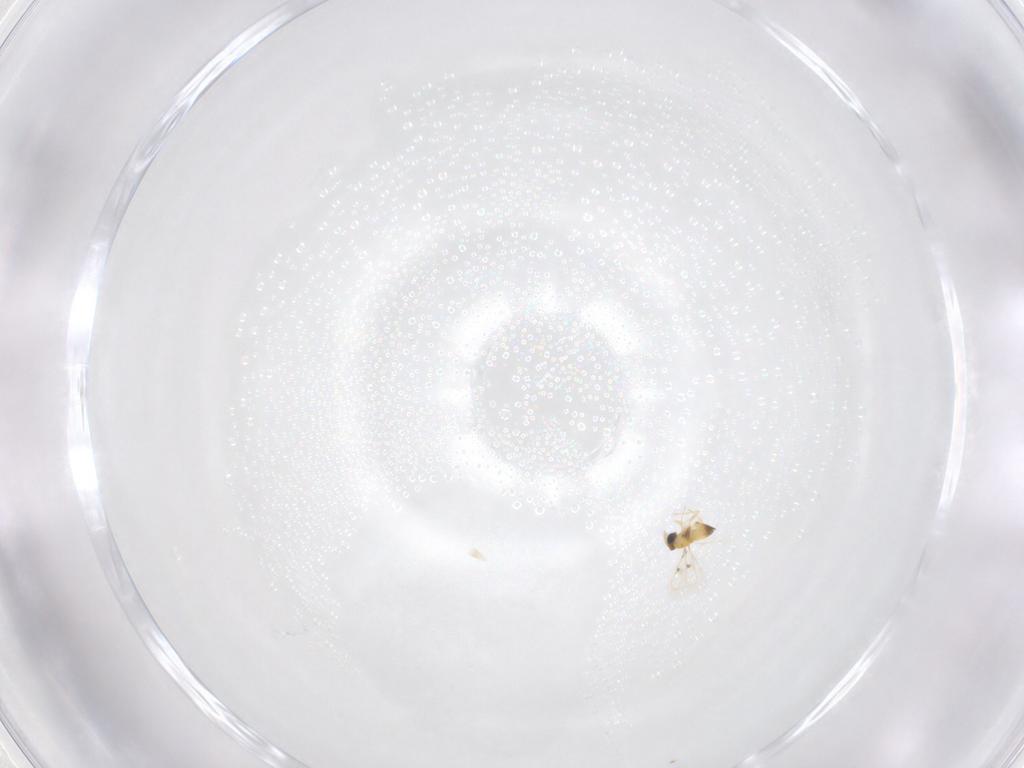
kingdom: Animalia
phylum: Arthropoda
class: Insecta
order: Hymenoptera
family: Trichogrammatidae
